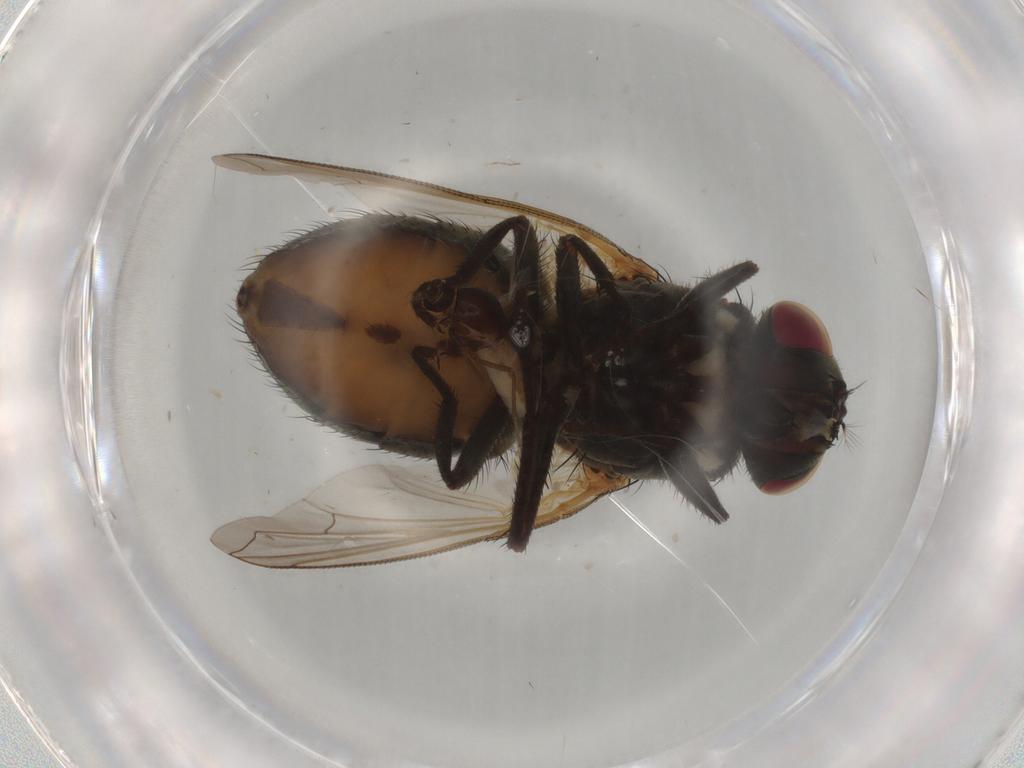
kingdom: Animalia
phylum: Arthropoda
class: Insecta
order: Diptera
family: Muscidae
